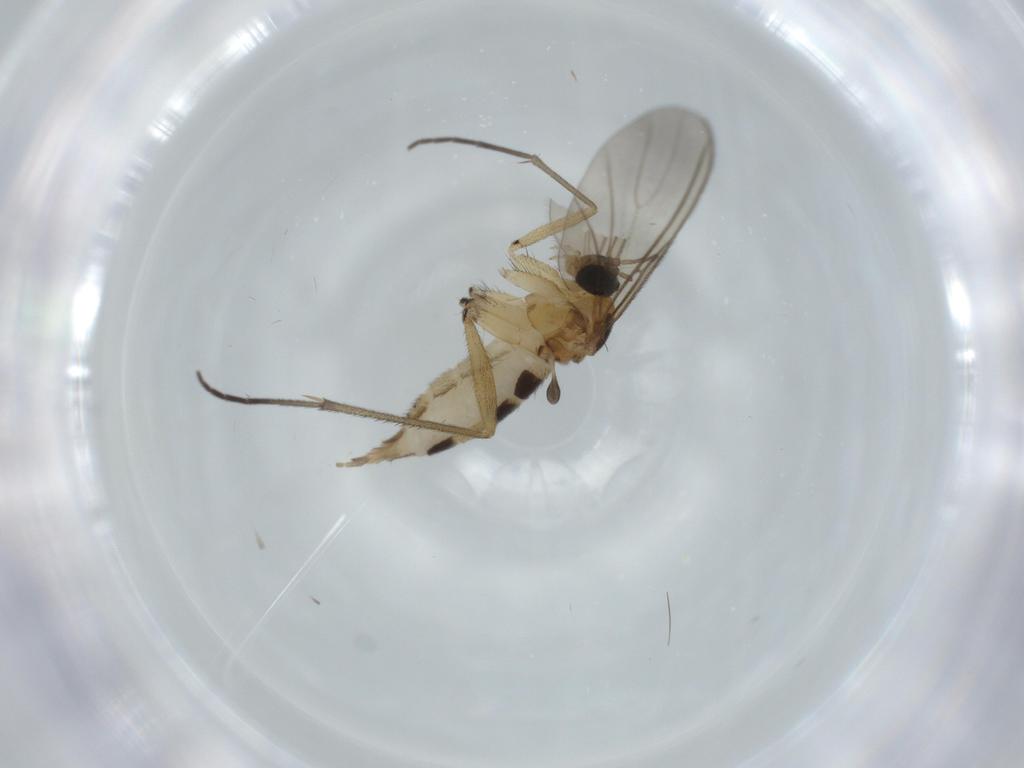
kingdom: Animalia
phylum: Arthropoda
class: Insecta
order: Diptera
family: Sciaridae
